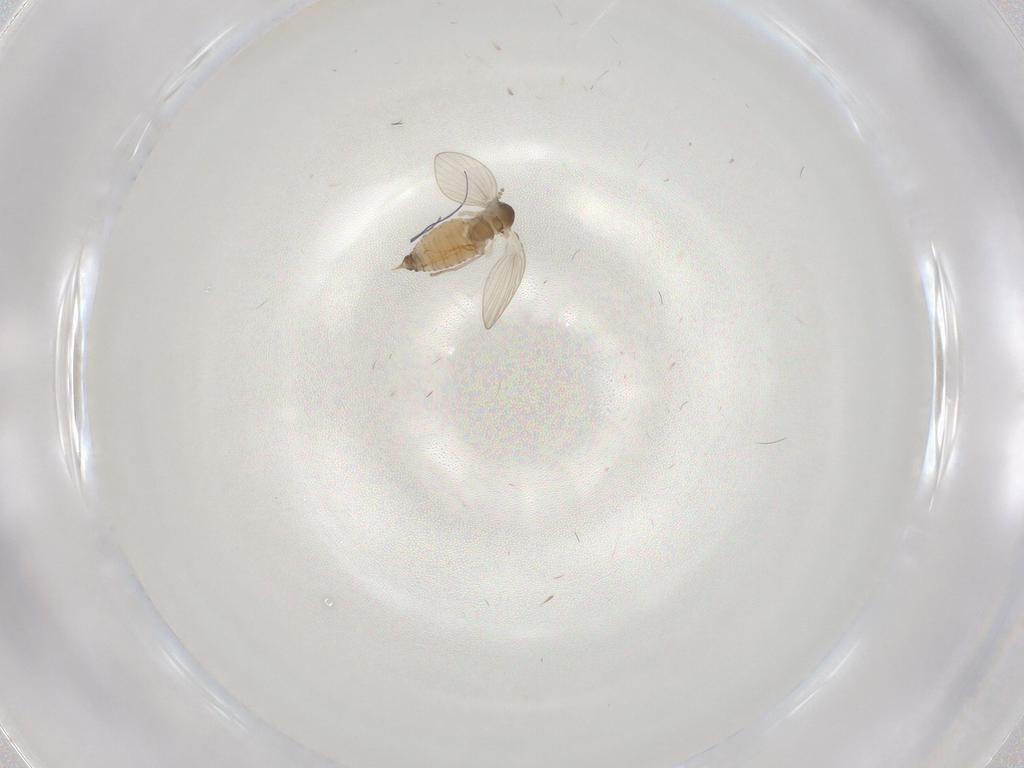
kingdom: Animalia
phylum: Arthropoda
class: Insecta
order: Diptera
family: Psychodidae
